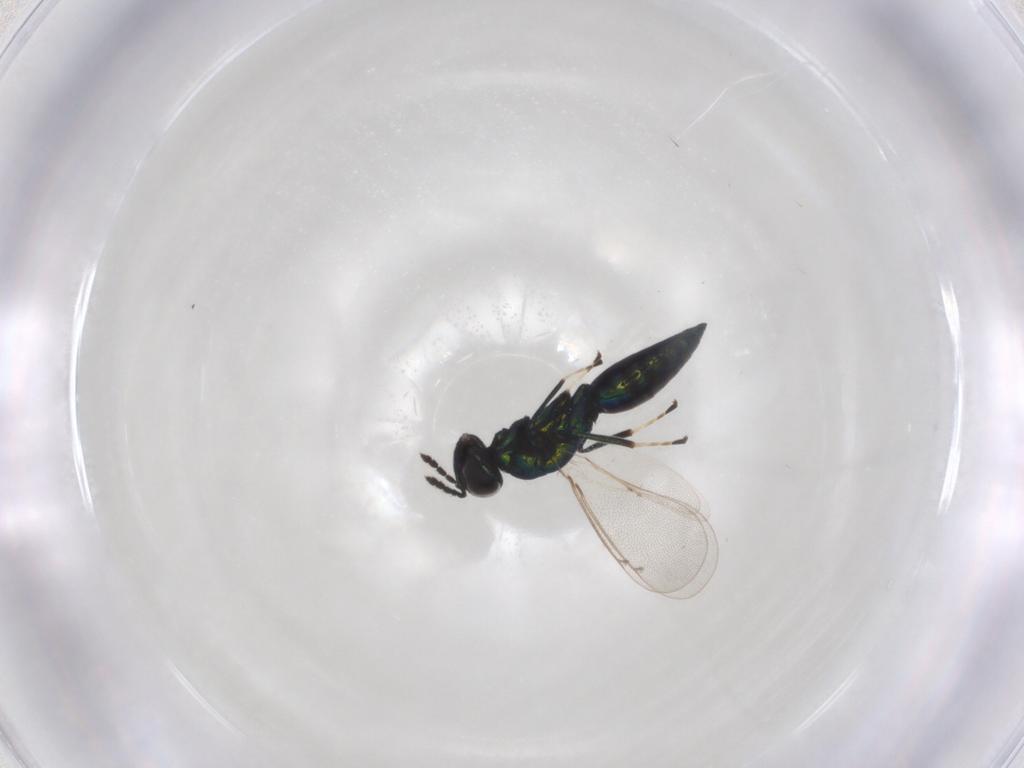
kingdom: Animalia
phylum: Arthropoda
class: Insecta
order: Hymenoptera
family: Eulophidae
